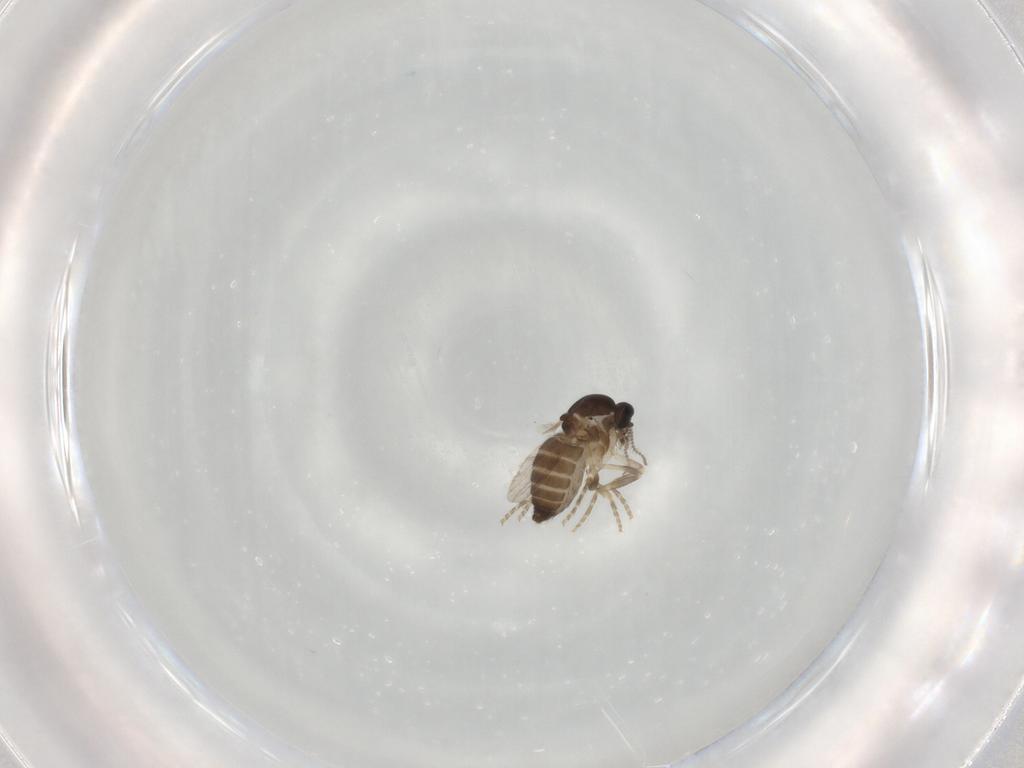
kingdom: Animalia
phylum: Arthropoda
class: Insecta
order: Diptera
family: Ceratopogonidae
